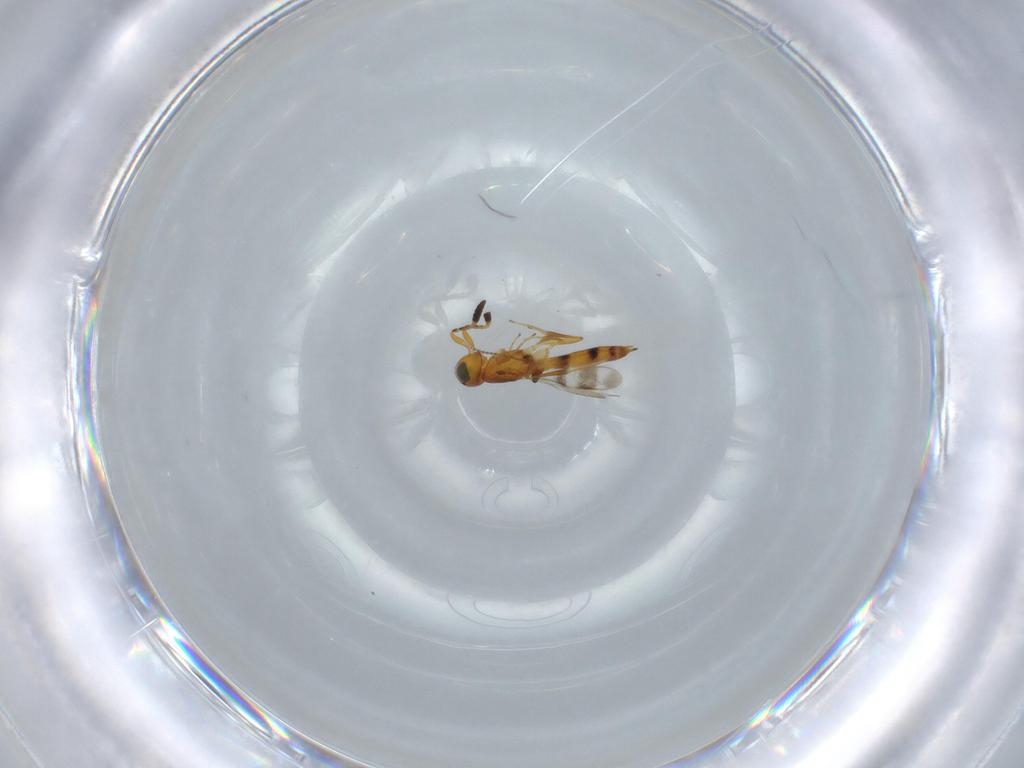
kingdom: Animalia
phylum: Arthropoda
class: Insecta
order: Hymenoptera
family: Scelionidae
